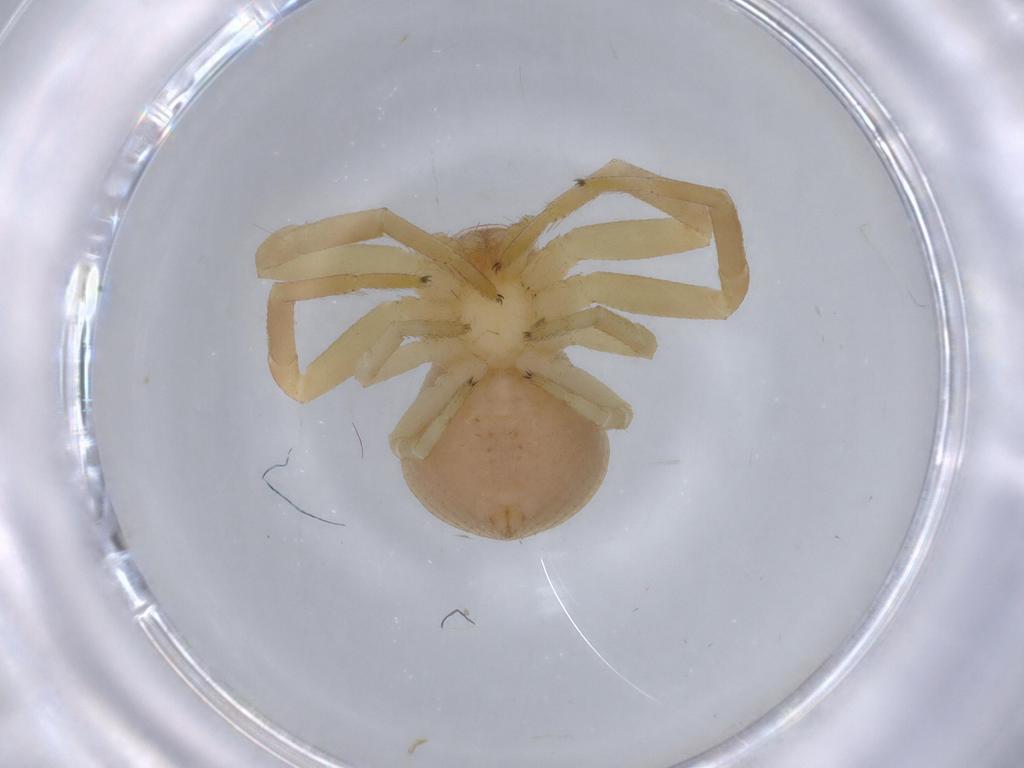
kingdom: Animalia
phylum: Arthropoda
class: Arachnida
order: Araneae
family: Thomisidae
